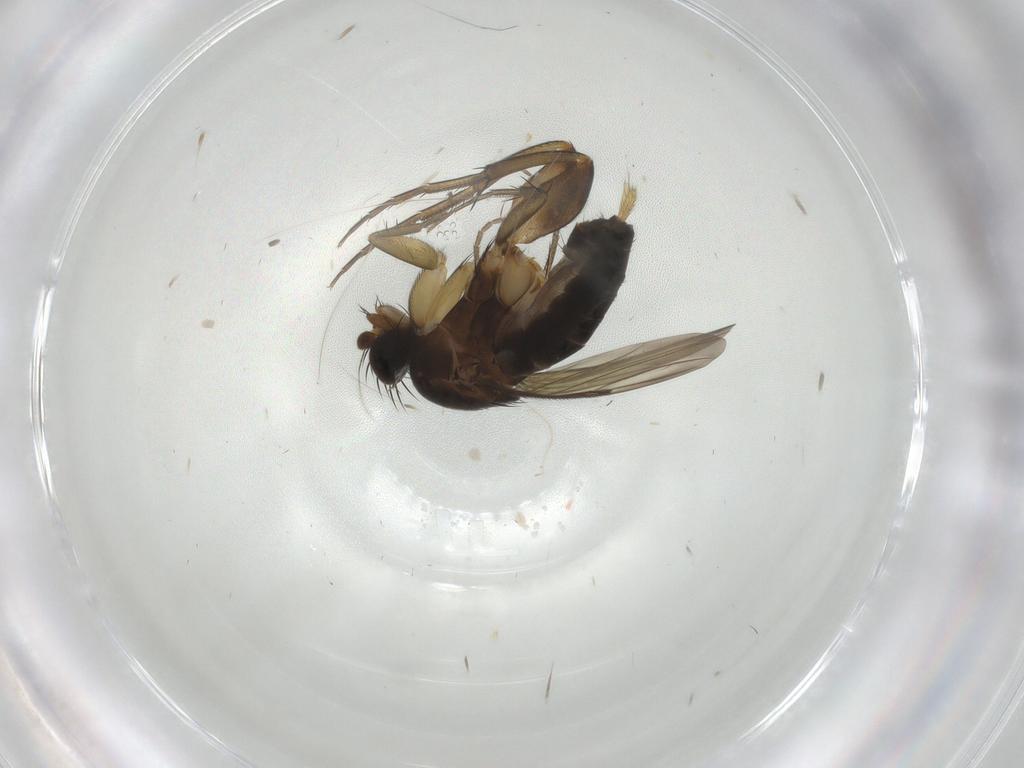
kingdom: Animalia
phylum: Arthropoda
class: Insecta
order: Diptera
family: Phoridae
